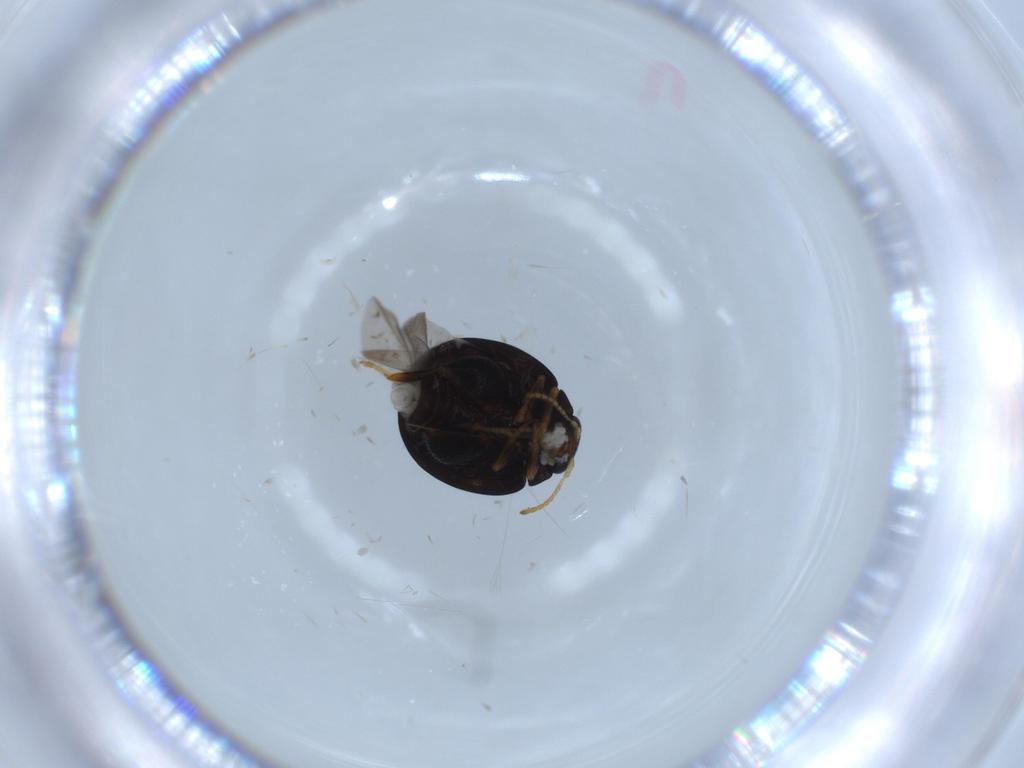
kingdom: Animalia
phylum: Arthropoda
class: Insecta
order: Coleoptera
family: Chrysomelidae
